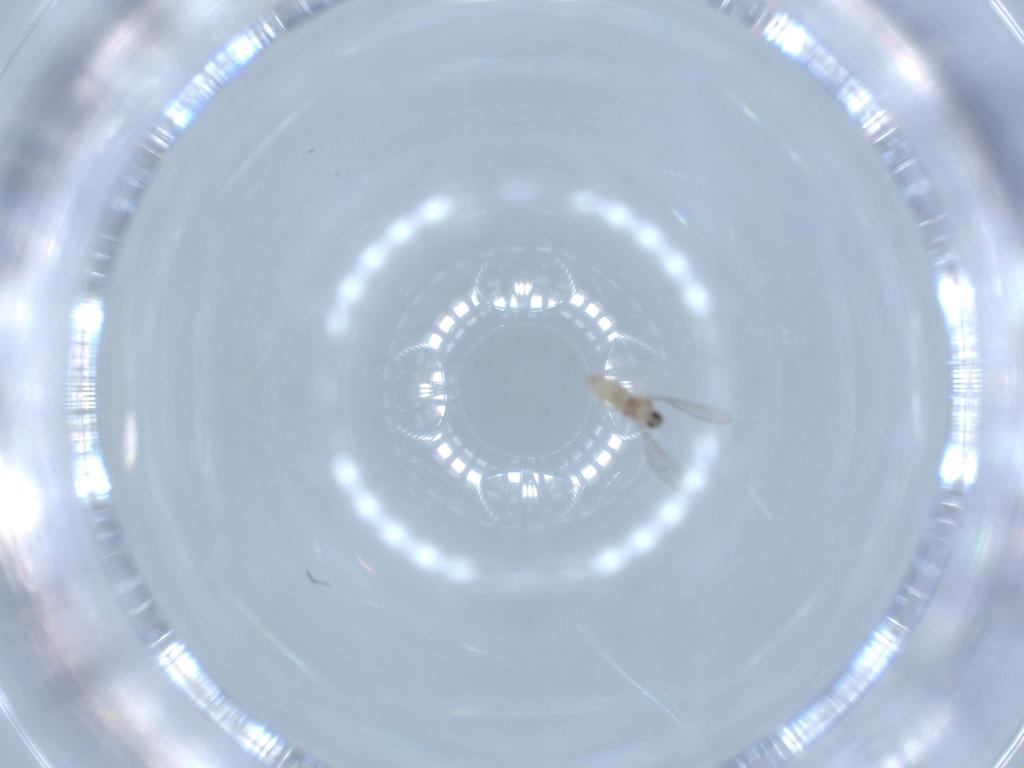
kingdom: Animalia
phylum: Arthropoda
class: Insecta
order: Diptera
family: Cecidomyiidae
